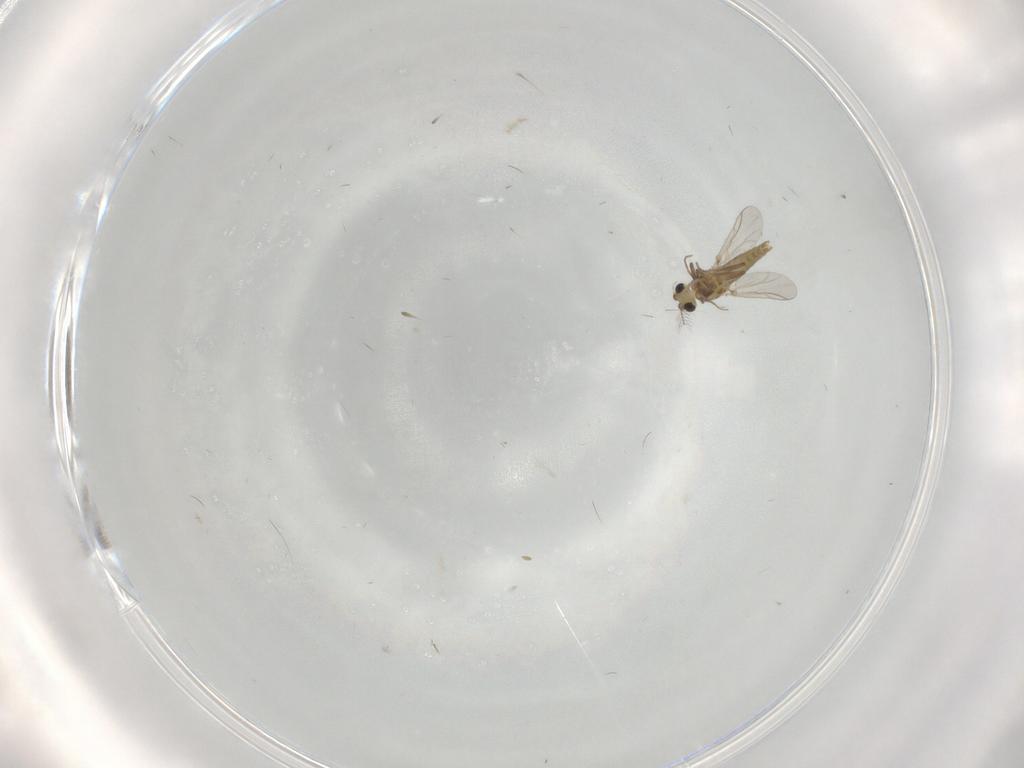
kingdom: Animalia
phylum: Arthropoda
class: Insecta
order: Diptera
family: Chironomidae
